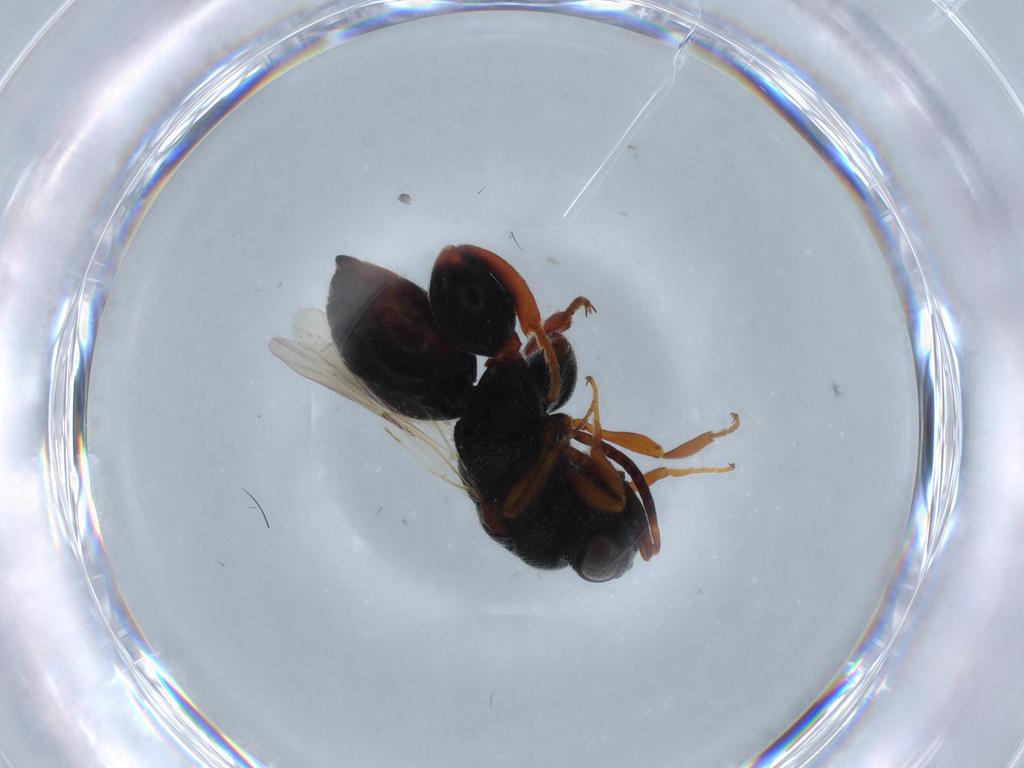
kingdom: Animalia
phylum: Arthropoda
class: Insecta
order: Hymenoptera
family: Chalcididae
